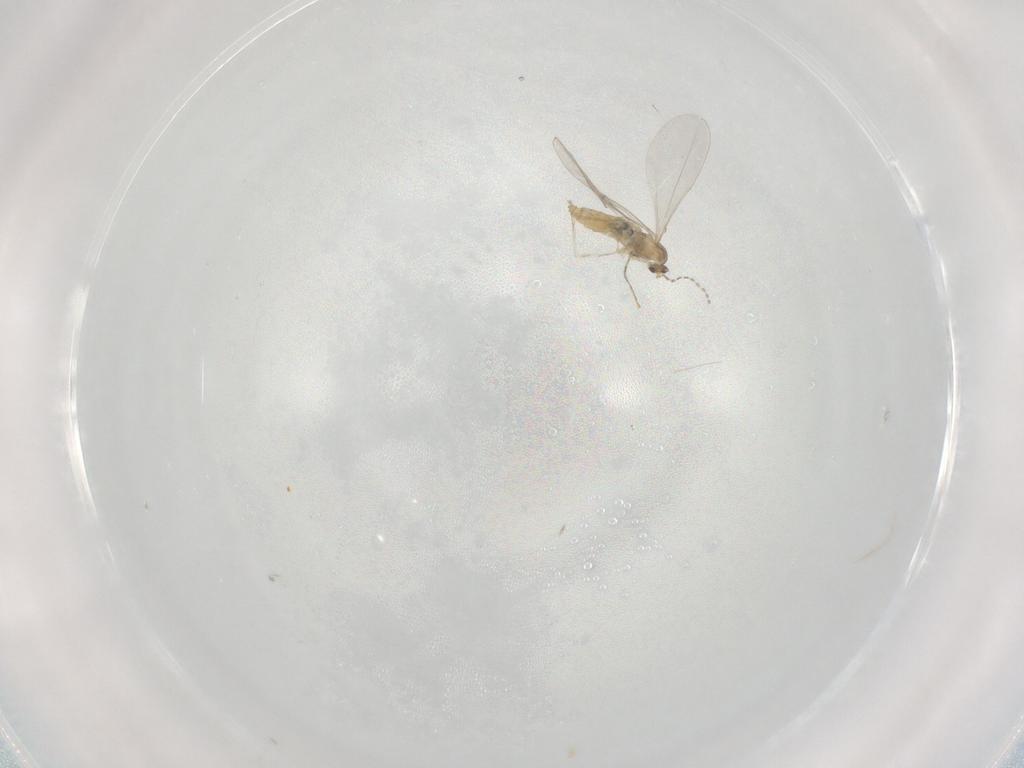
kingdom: Animalia
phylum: Arthropoda
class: Insecta
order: Diptera
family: Cecidomyiidae
